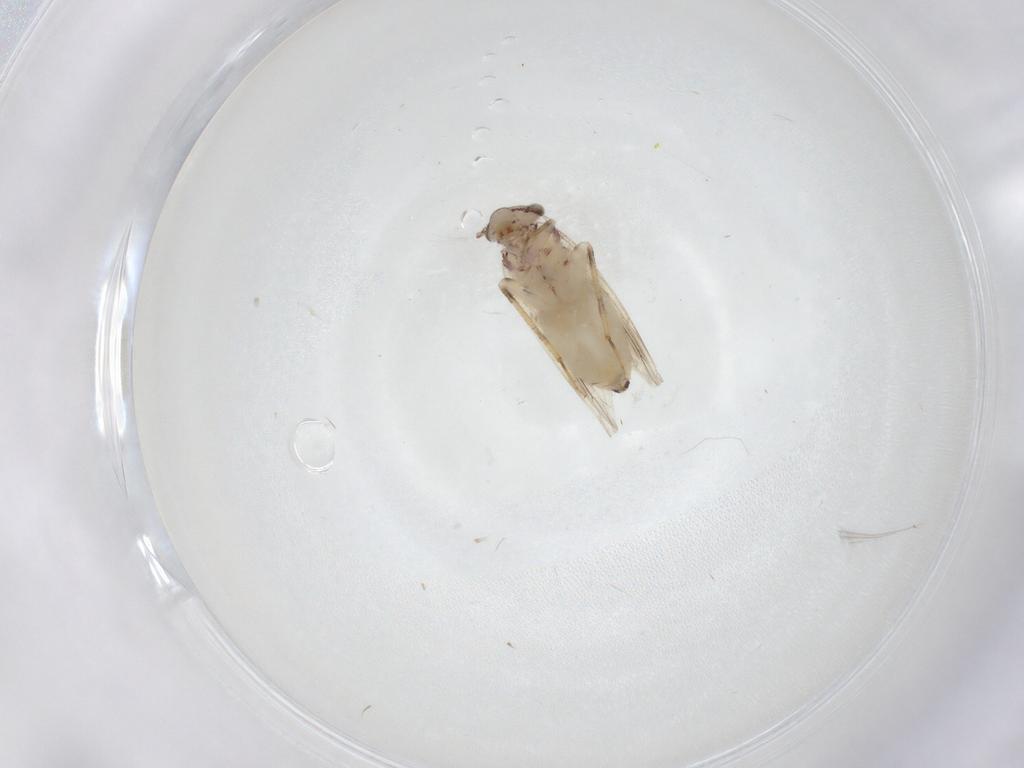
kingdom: Animalia
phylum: Arthropoda
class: Insecta
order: Psocodea
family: Lepidopsocidae
